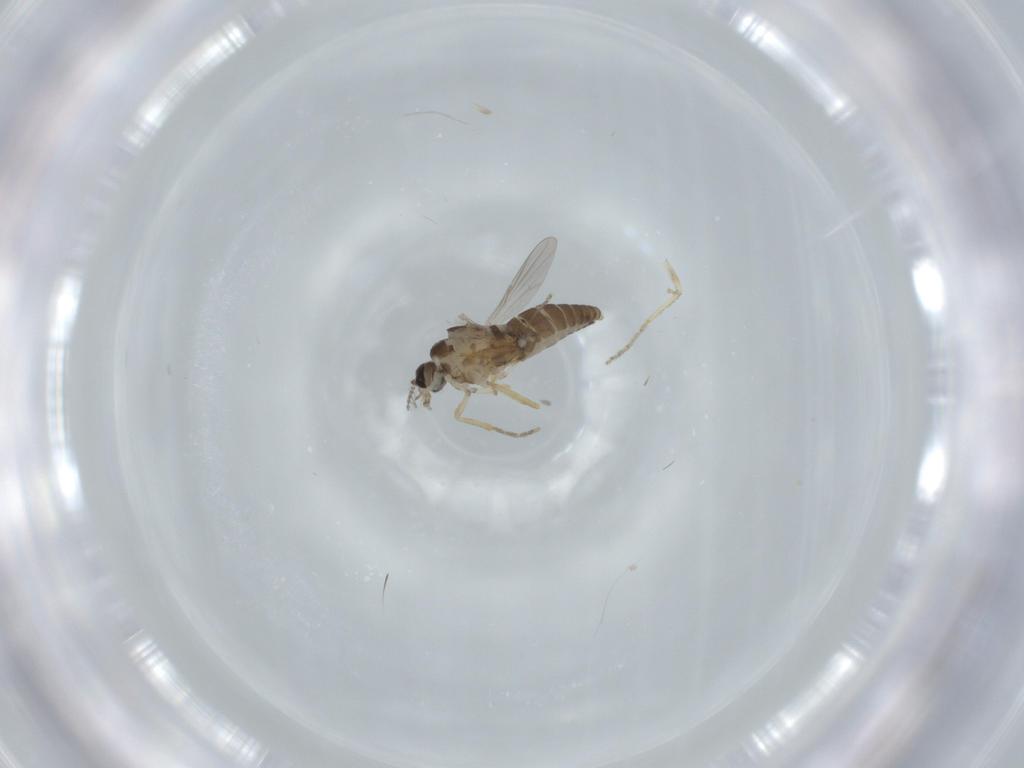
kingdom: Animalia
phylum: Arthropoda
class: Insecta
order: Diptera
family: Ceratopogonidae
